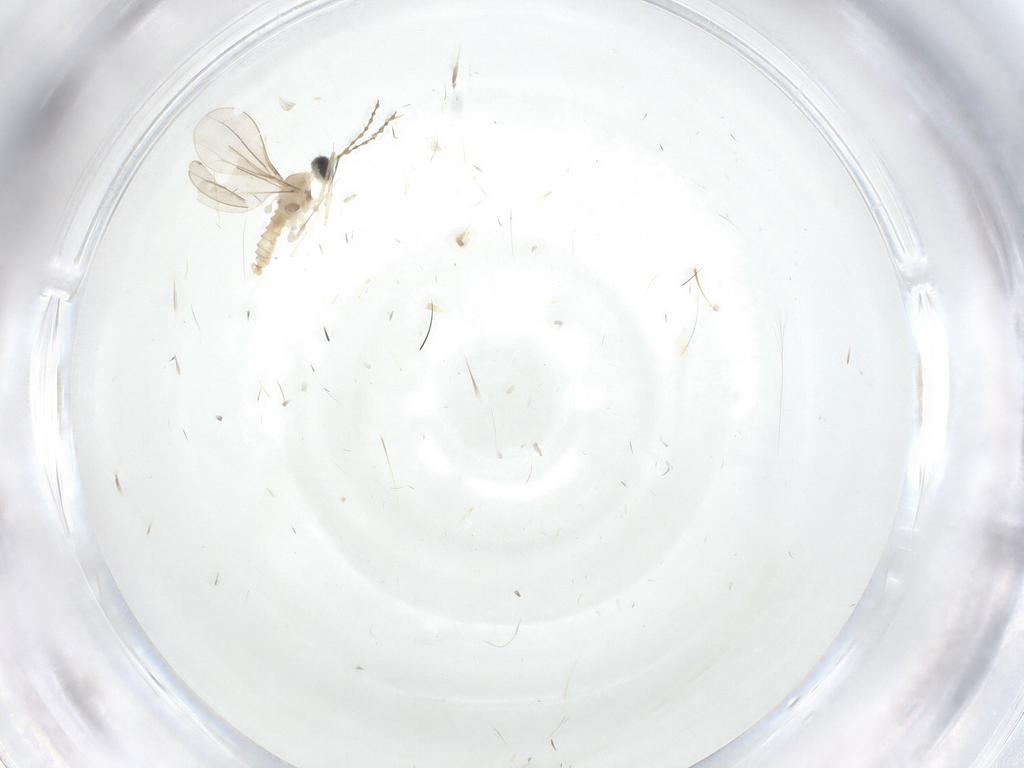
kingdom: Animalia
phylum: Arthropoda
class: Insecta
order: Diptera
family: Cecidomyiidae
